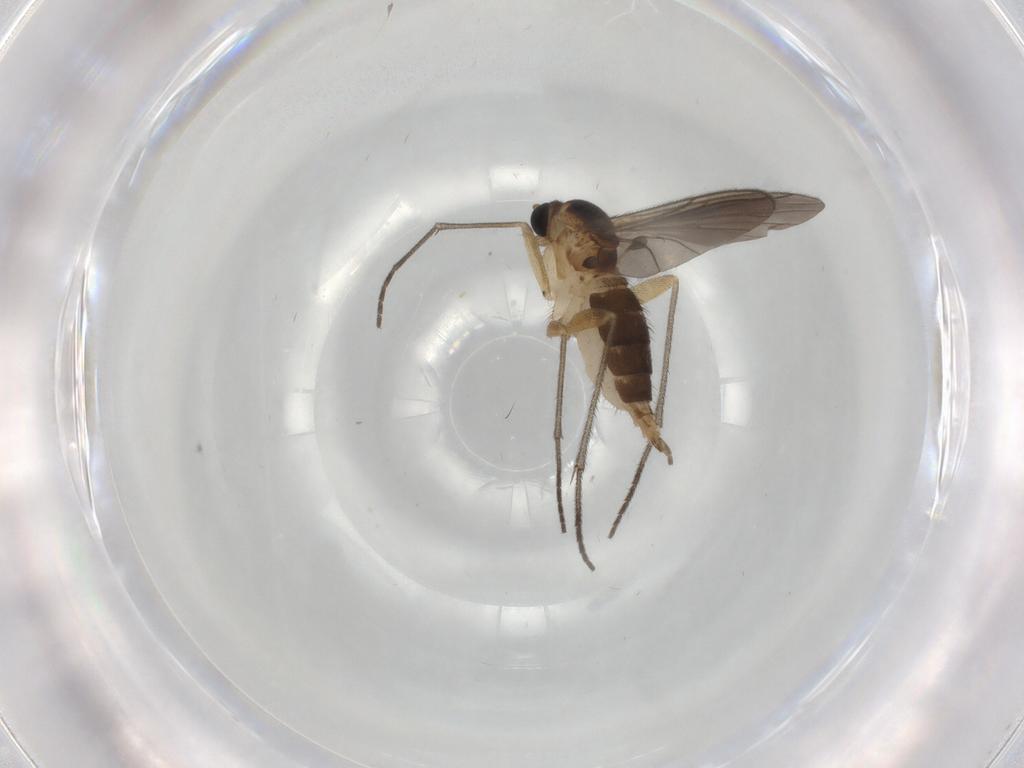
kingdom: Animalia
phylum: Arthropoda
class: Insecta
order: Diptera
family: Sciaridae
